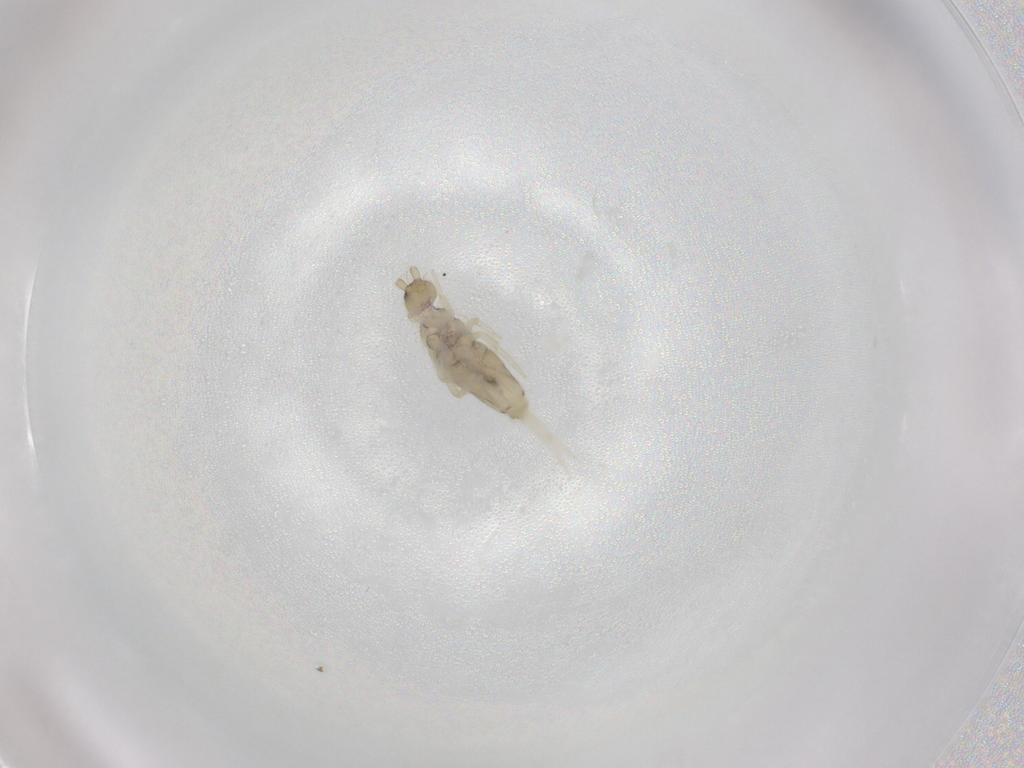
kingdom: Animalia
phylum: Arthropoda
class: Collembola
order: Entomobryomorpha
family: Entomobryidae
